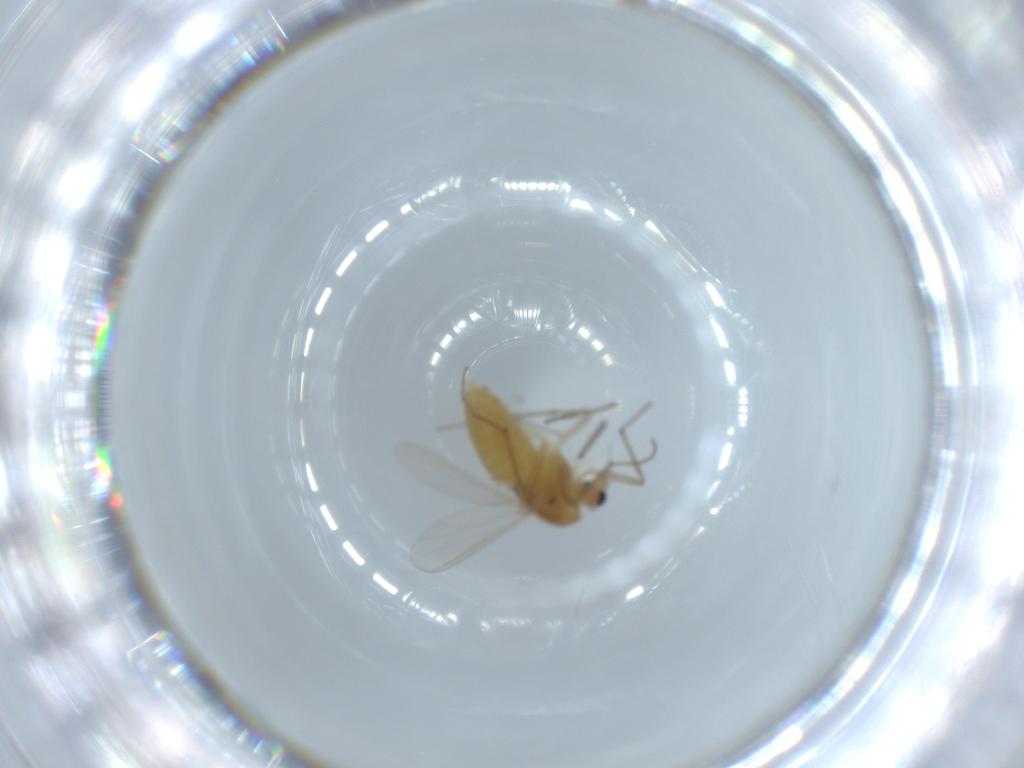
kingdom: Animalia
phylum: Arthropoda
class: Insecta
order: Diptera
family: Chironomidae
